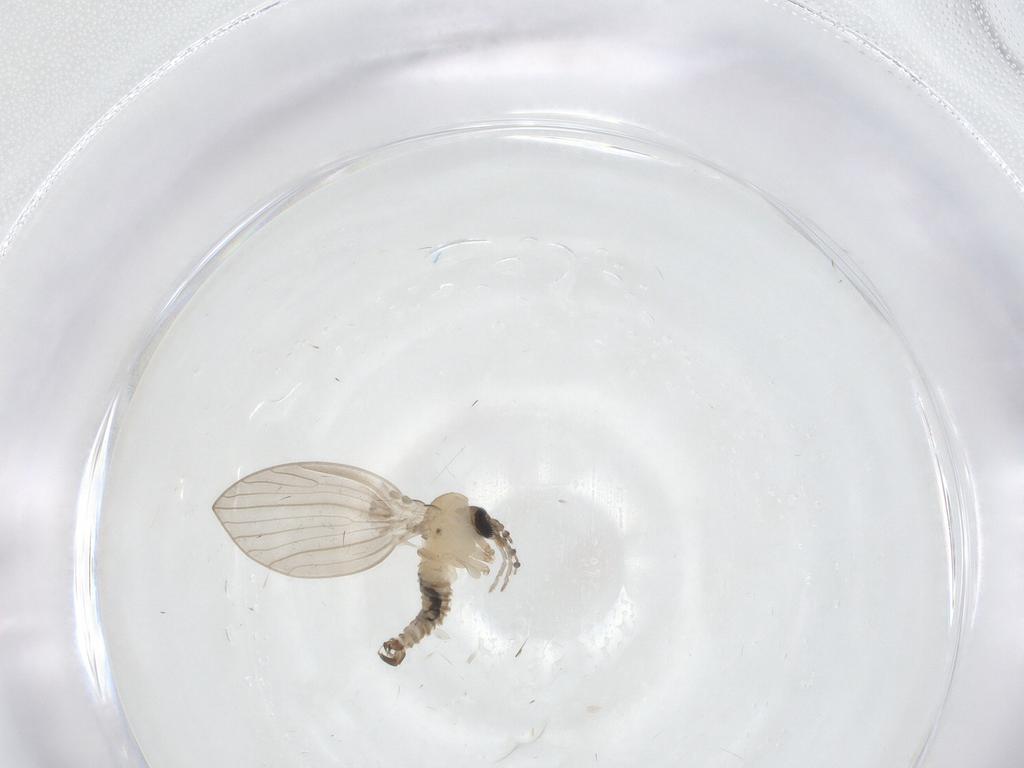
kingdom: Animalia
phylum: Arthropoda
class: Insecta
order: Diptera
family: Psychodidae
